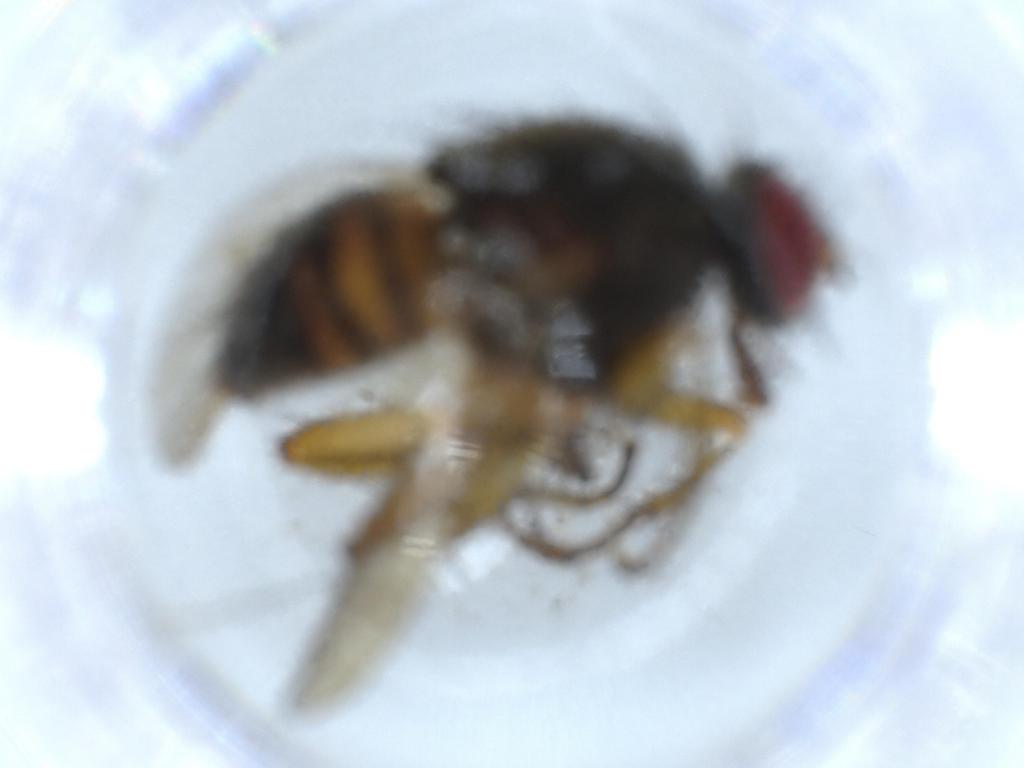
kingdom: Animalia
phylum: Arthropoda
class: Insecta
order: Diptera
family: Muscidae
